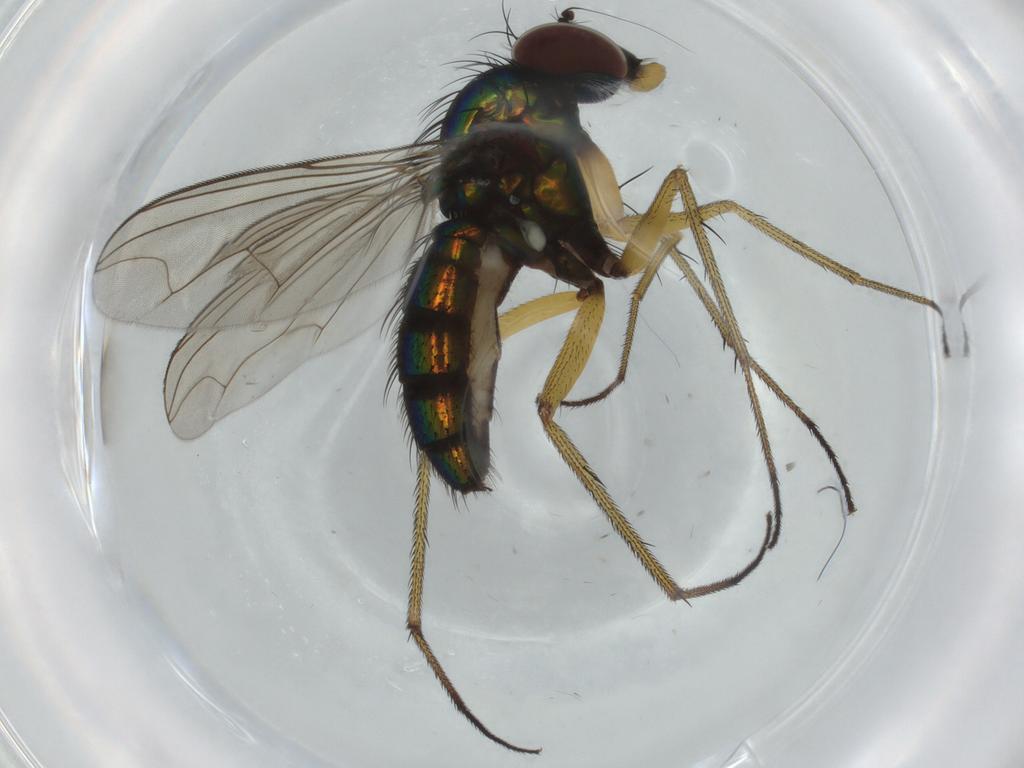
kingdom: Animalia
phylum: Arthropoda
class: Insecta
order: Diptera
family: Dolichopodidae
